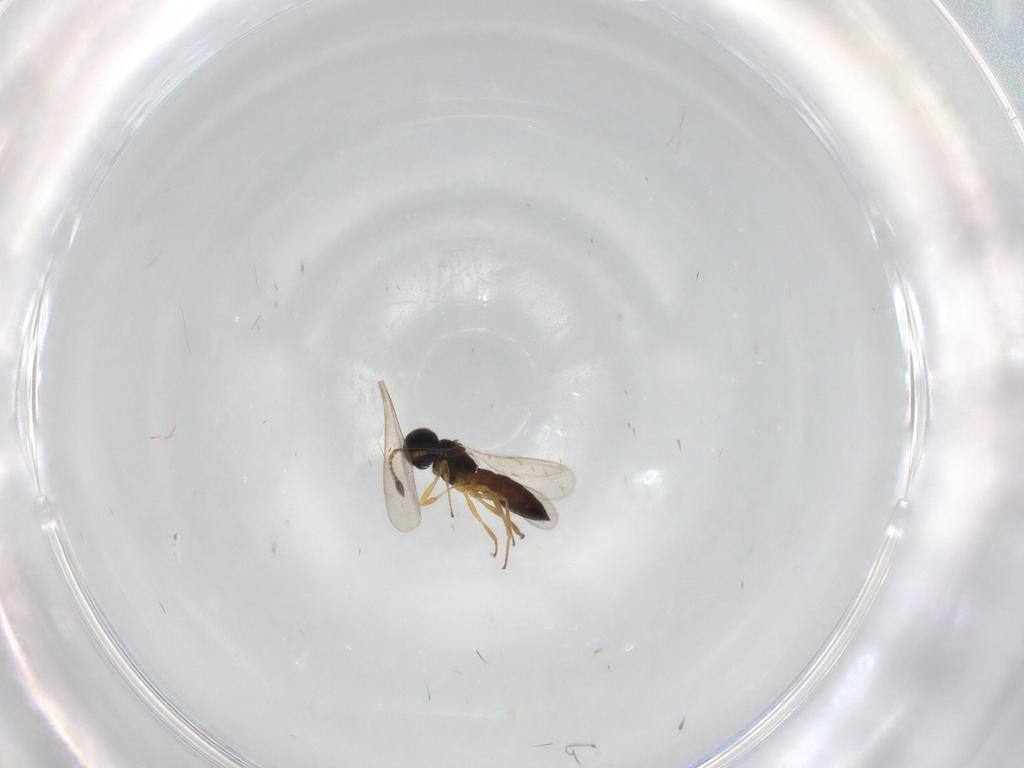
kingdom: Animalia
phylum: Arthropoda
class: Insecta
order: Hymenoptera
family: Scelionidae
